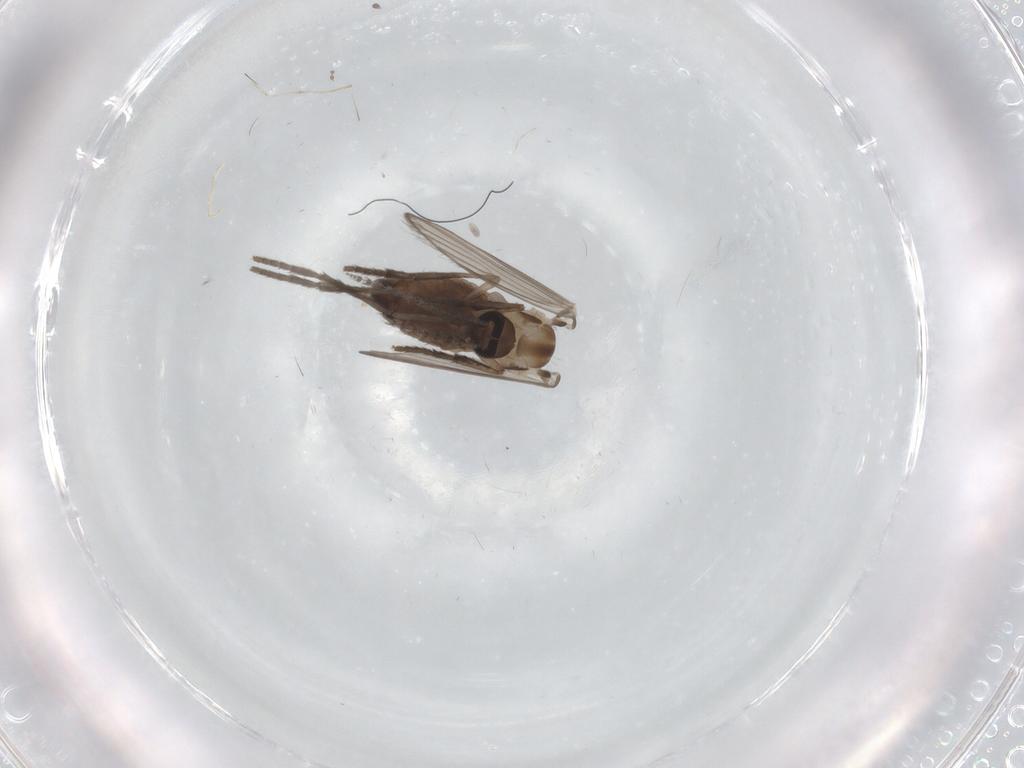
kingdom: Animalia
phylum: Arthropoda
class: Insecta
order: Diptera
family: Psychodidae
